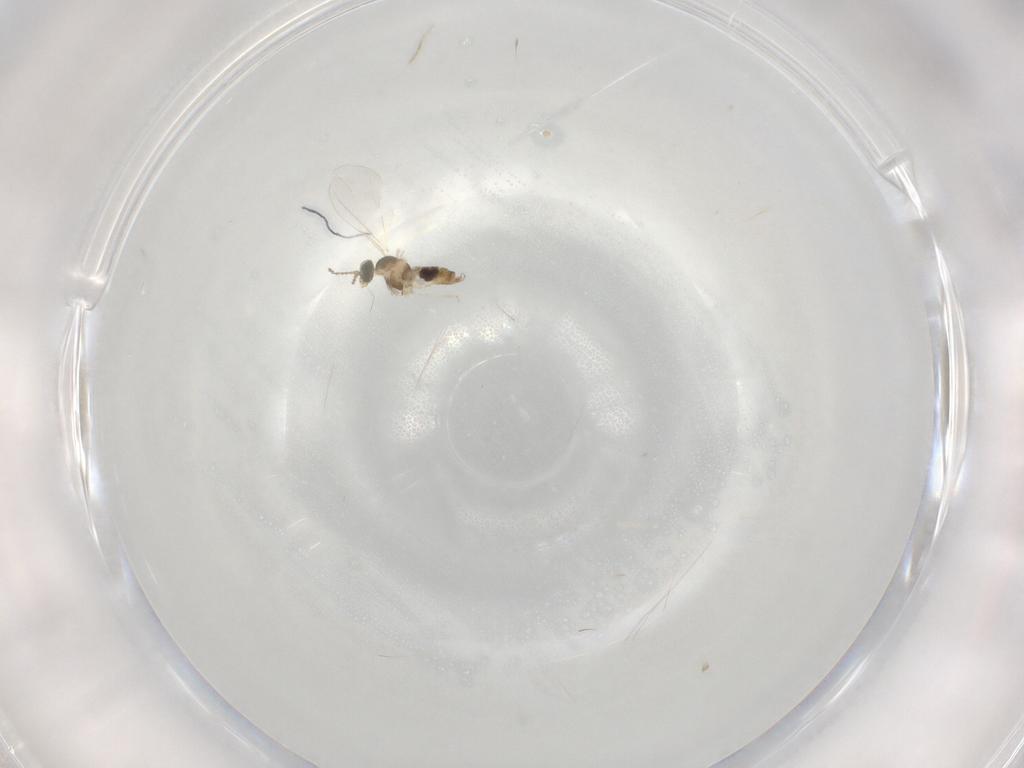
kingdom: Animalia
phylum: Arthropoda
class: Insecta
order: Diptera
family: Cecidomyiidae
